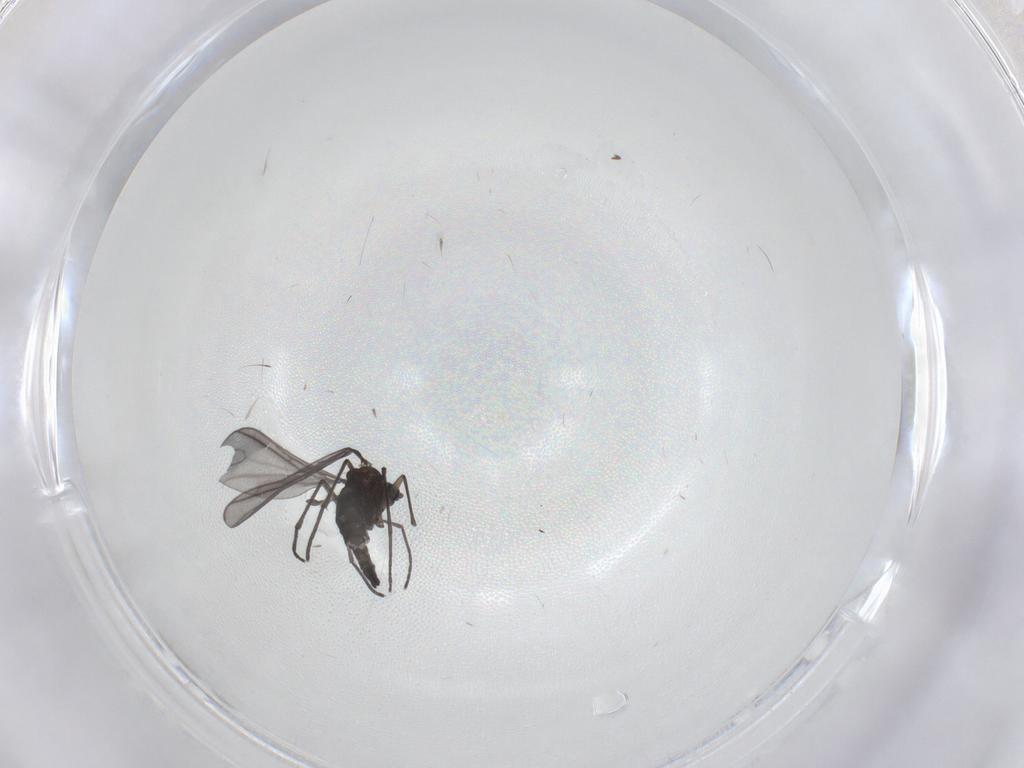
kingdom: Animalia
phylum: Arthropoda
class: Insecta
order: Diptera
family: Sciaridae
